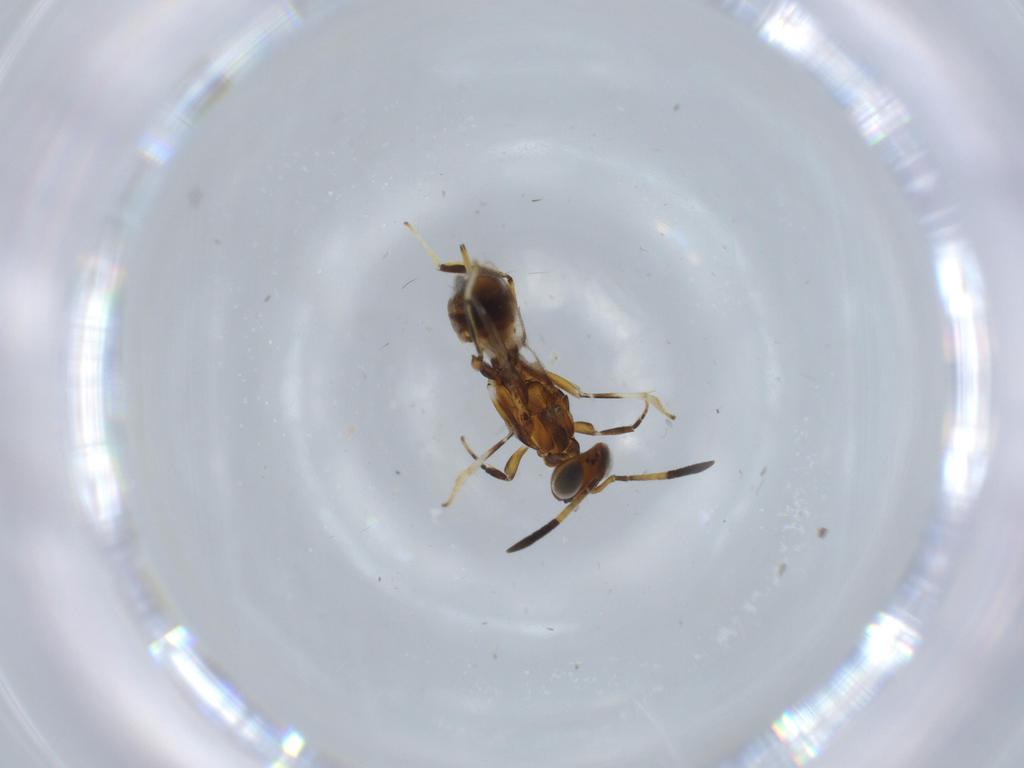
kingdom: Animalia
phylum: Arthropoda
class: Insecta
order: Hymenoptera
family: Eupelmidae
